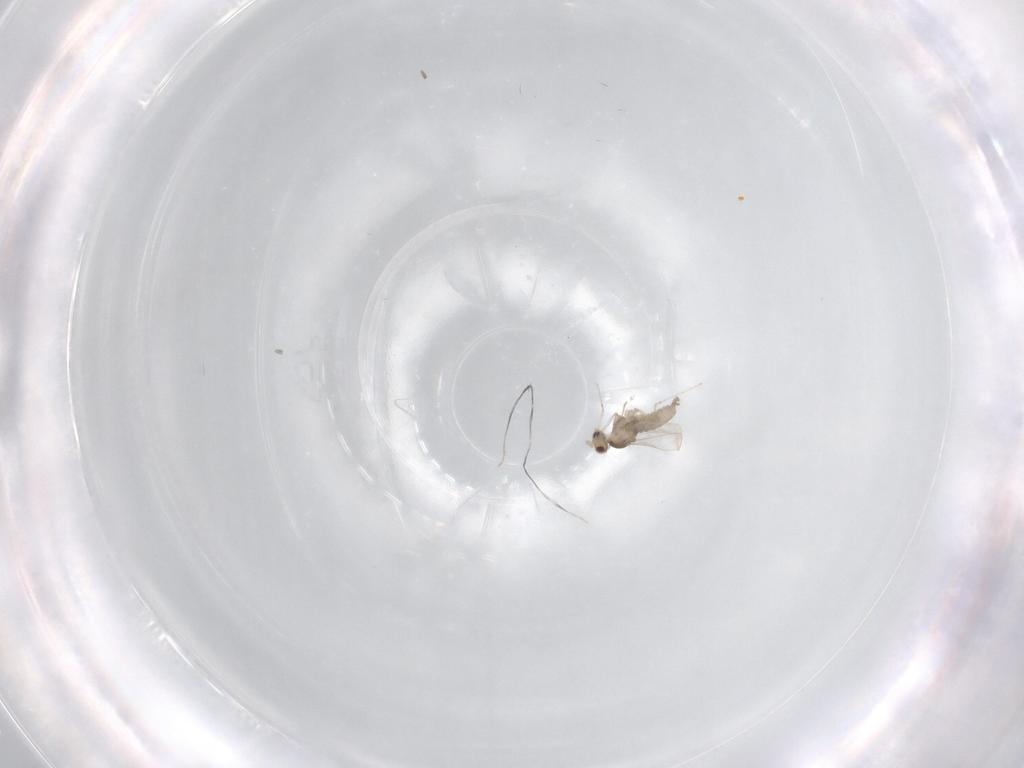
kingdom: Animalia
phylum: Arthropoda
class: Insecta
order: Diptera
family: Cecidomyiidae
